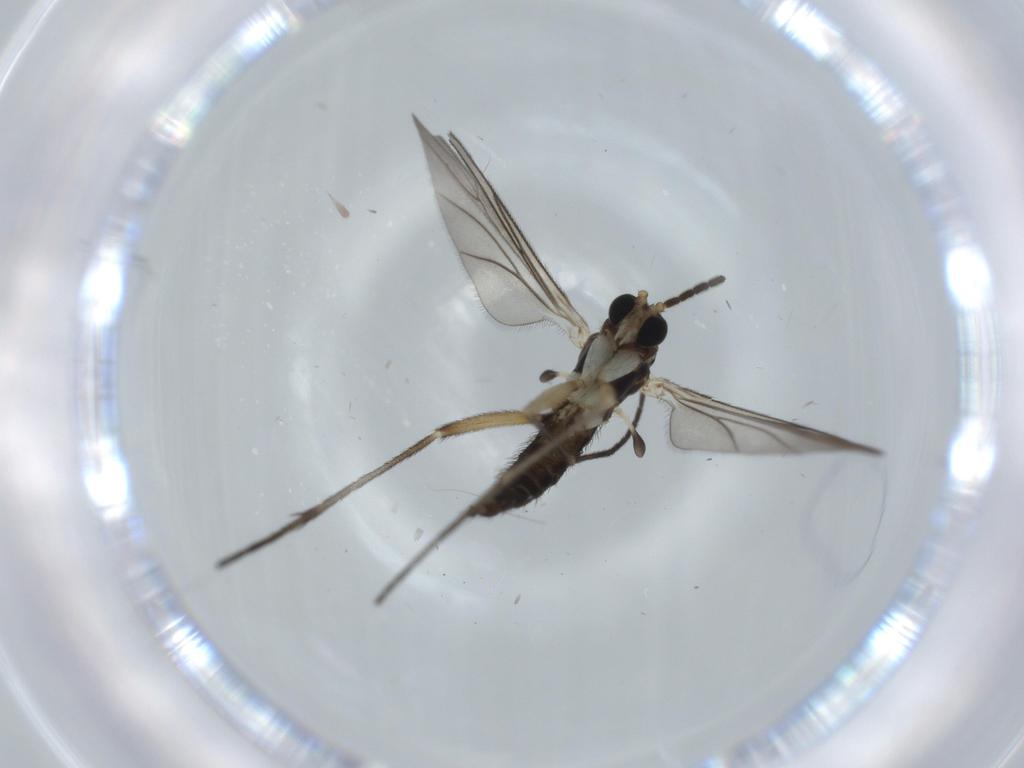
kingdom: Animalia
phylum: Arthropoda
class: Insecta
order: Diptera
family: Sciaridae
